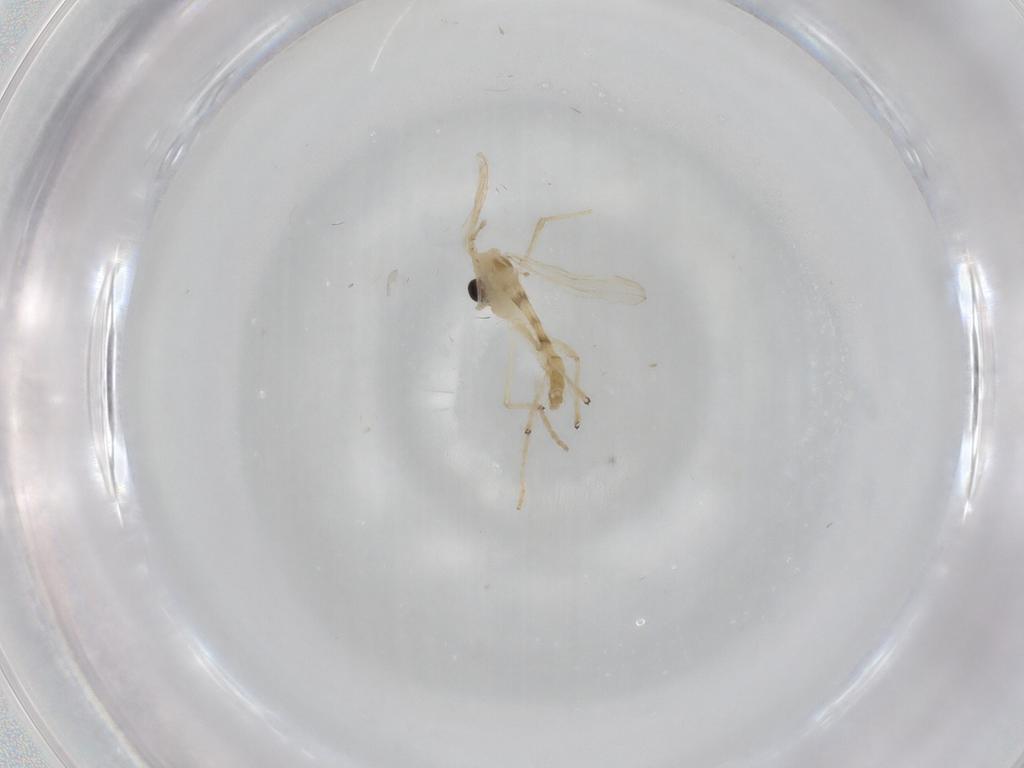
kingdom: Animalia
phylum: Arthropoda
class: Insecta
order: Diptera
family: Chironomidae
